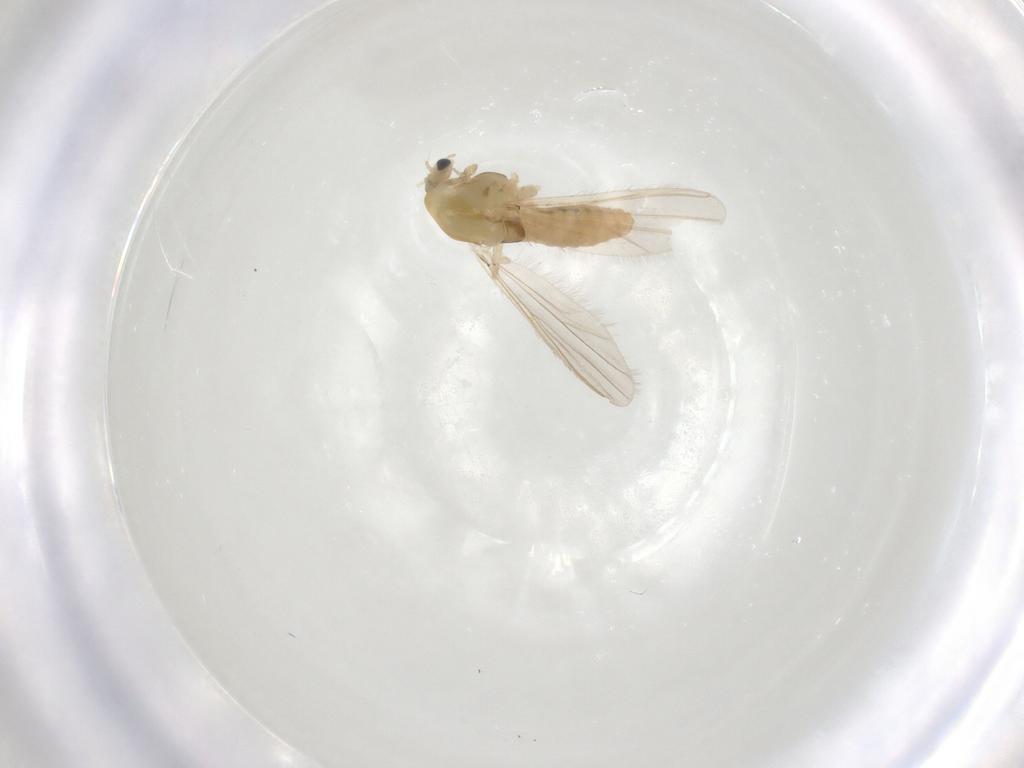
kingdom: Animalia
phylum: Arthropoda
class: Insecta
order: Diptera
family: Chironomidae
